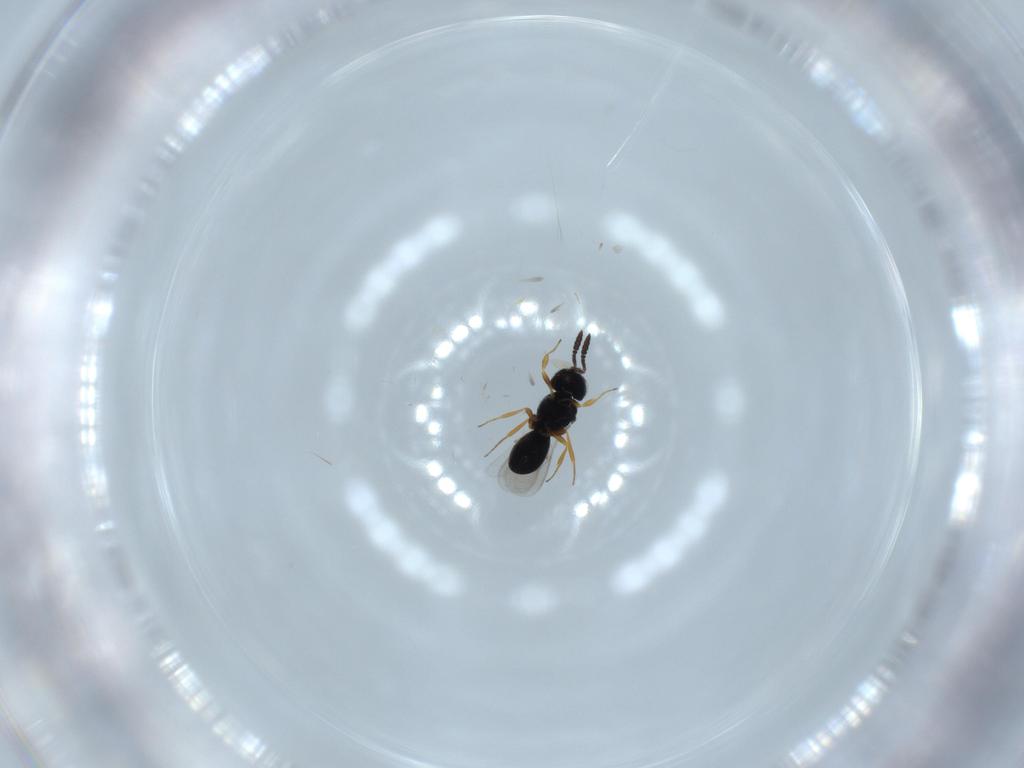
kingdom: Animalia
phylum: Arthropoda
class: Insecta
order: Hymenoptera
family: Scelionidae
